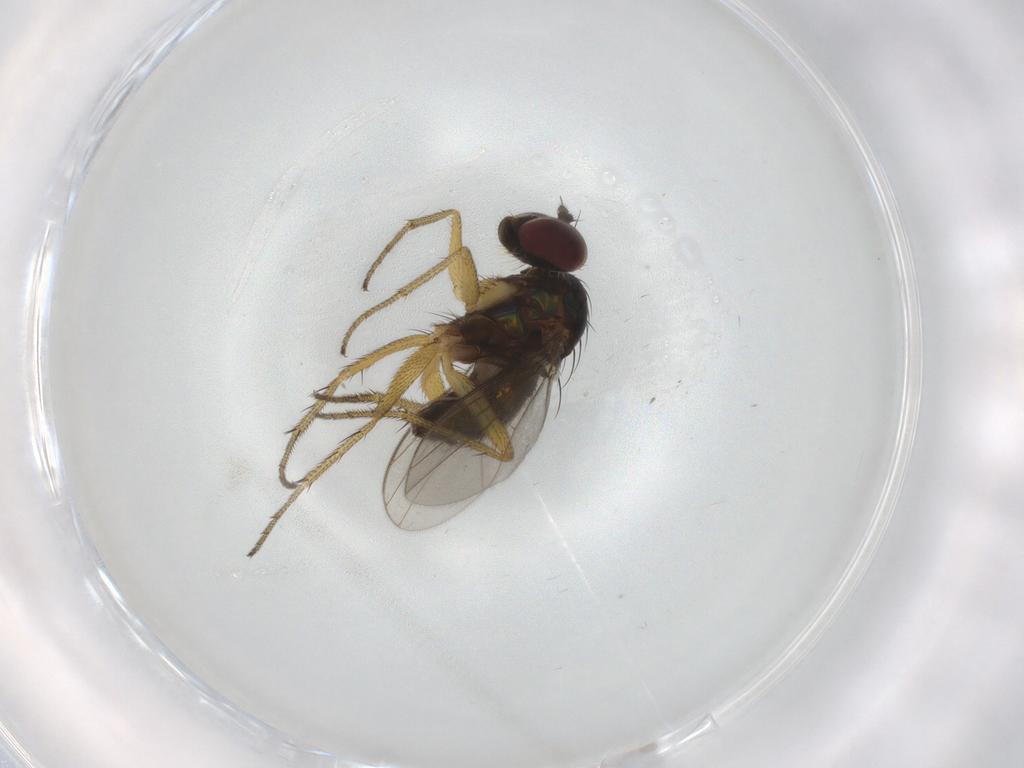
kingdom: Animalia
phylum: Arthropoda
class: Insecta
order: Diptera
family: Dolichopodidae
